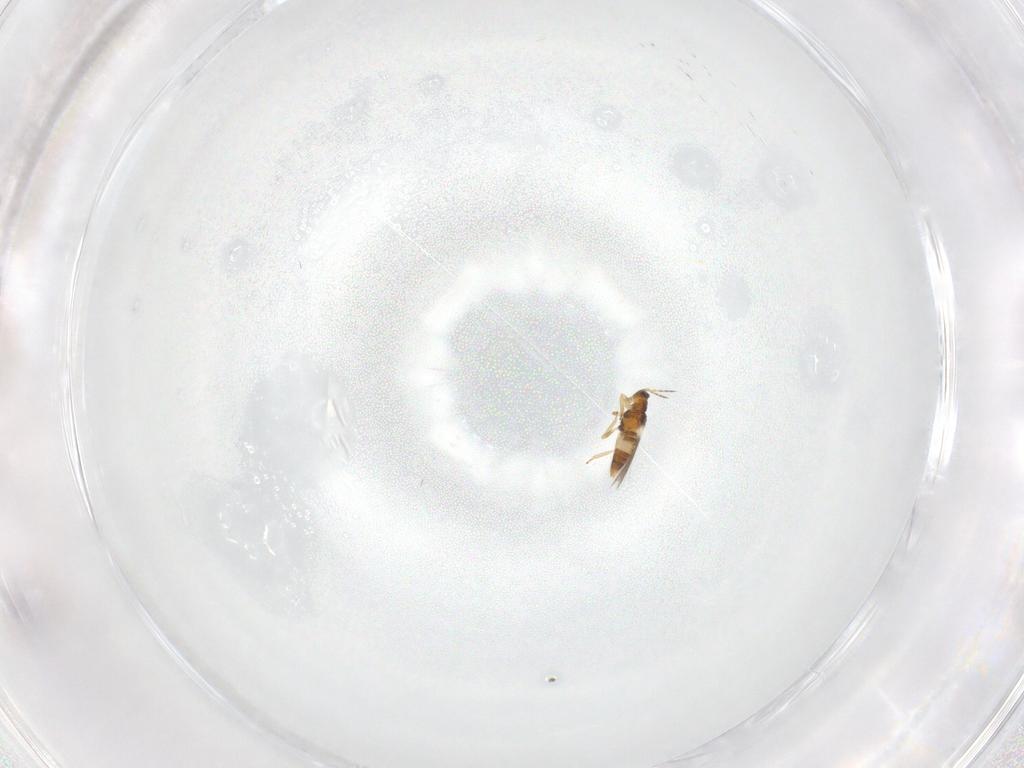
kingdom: Animalia
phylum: Arthropoda
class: Insecta
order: Thysanoptera
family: Thripidae
